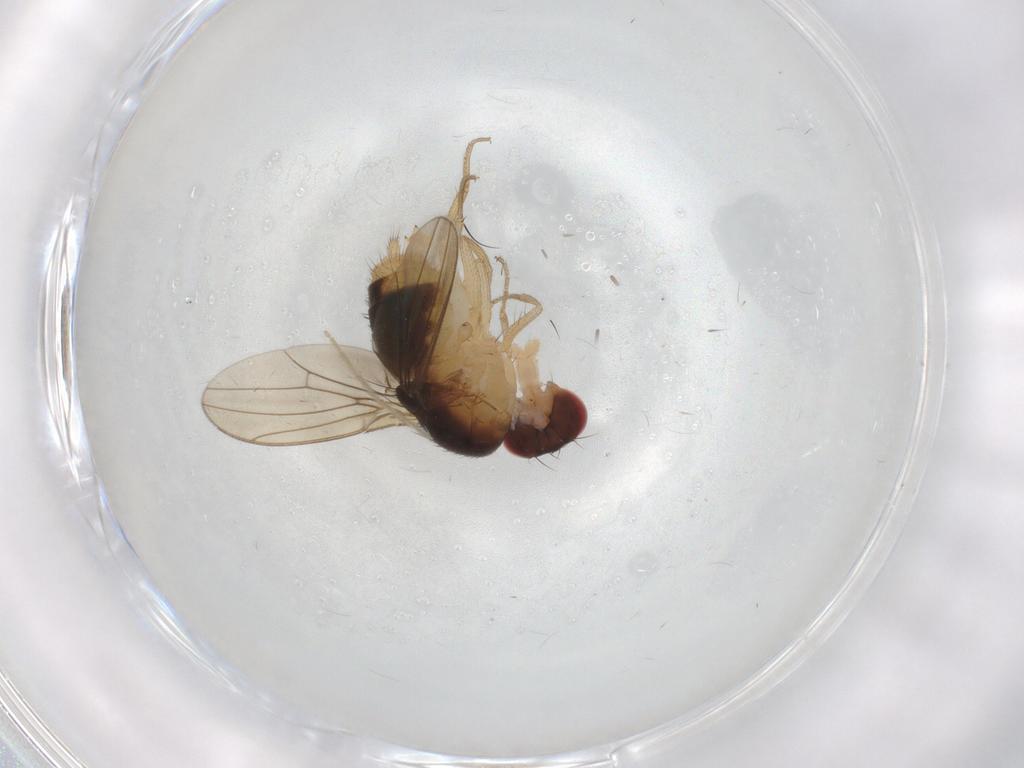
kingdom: Animalia
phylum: Arthropoda
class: Insecta
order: Diptera
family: Drosophilidae
